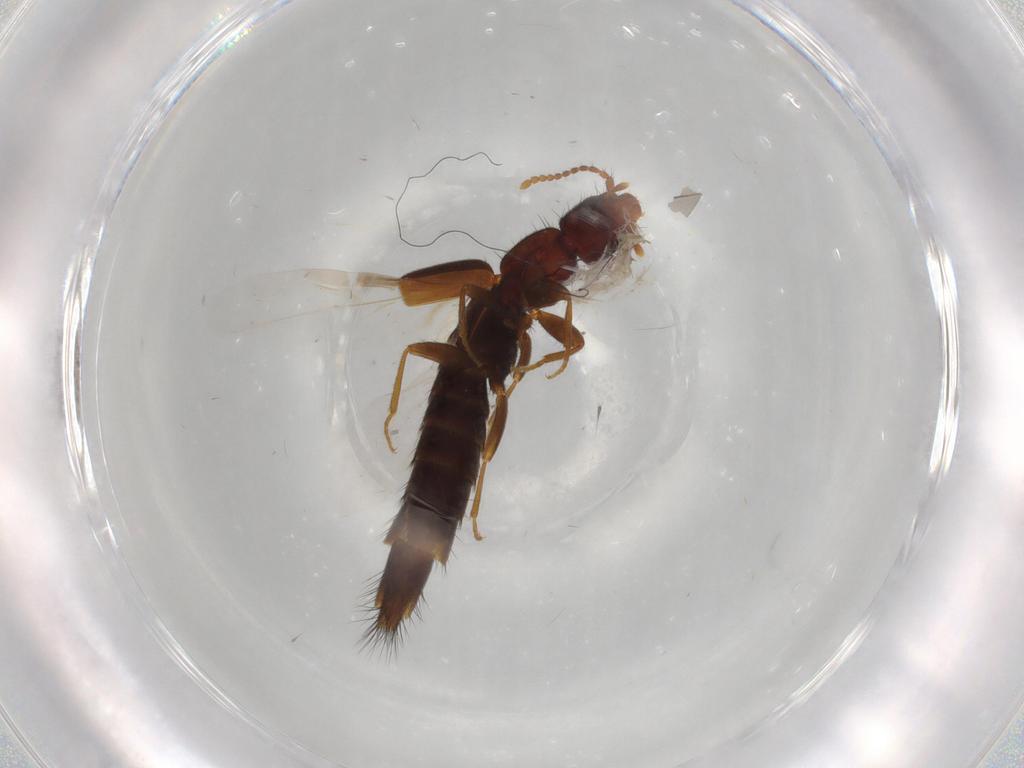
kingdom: Animalia
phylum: Arthropoda
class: Insecta
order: Coleoptera
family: Staphylinidae
